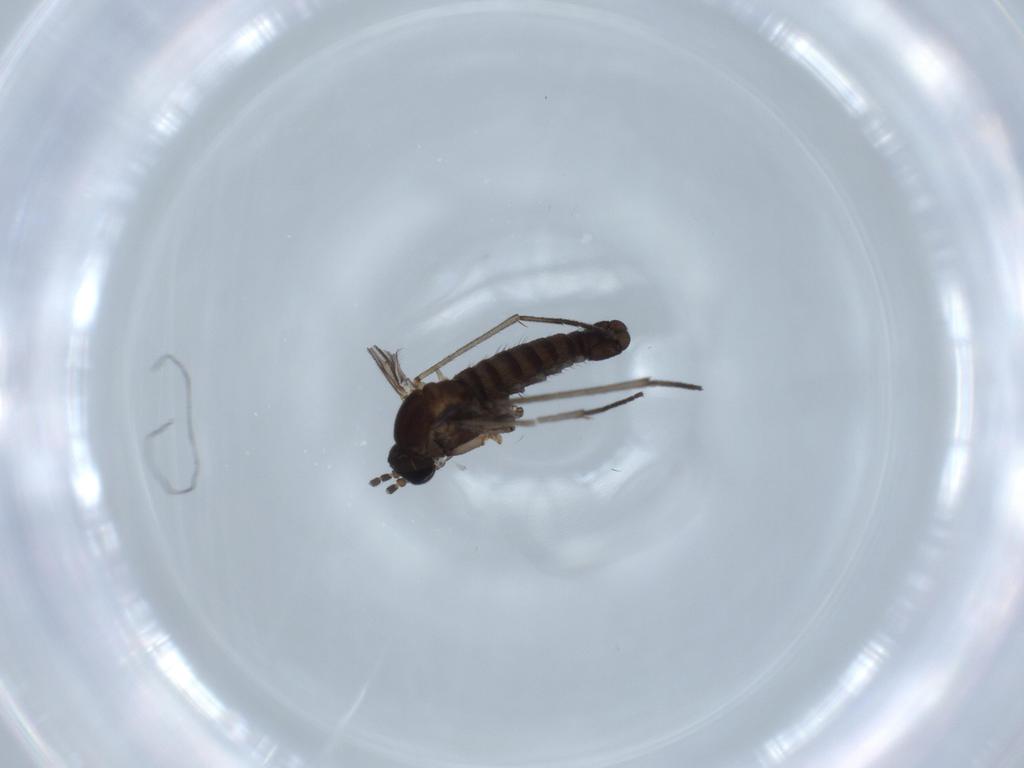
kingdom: Animalia
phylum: Arthropoda
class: Insecta
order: Diptera
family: Sciaridae
